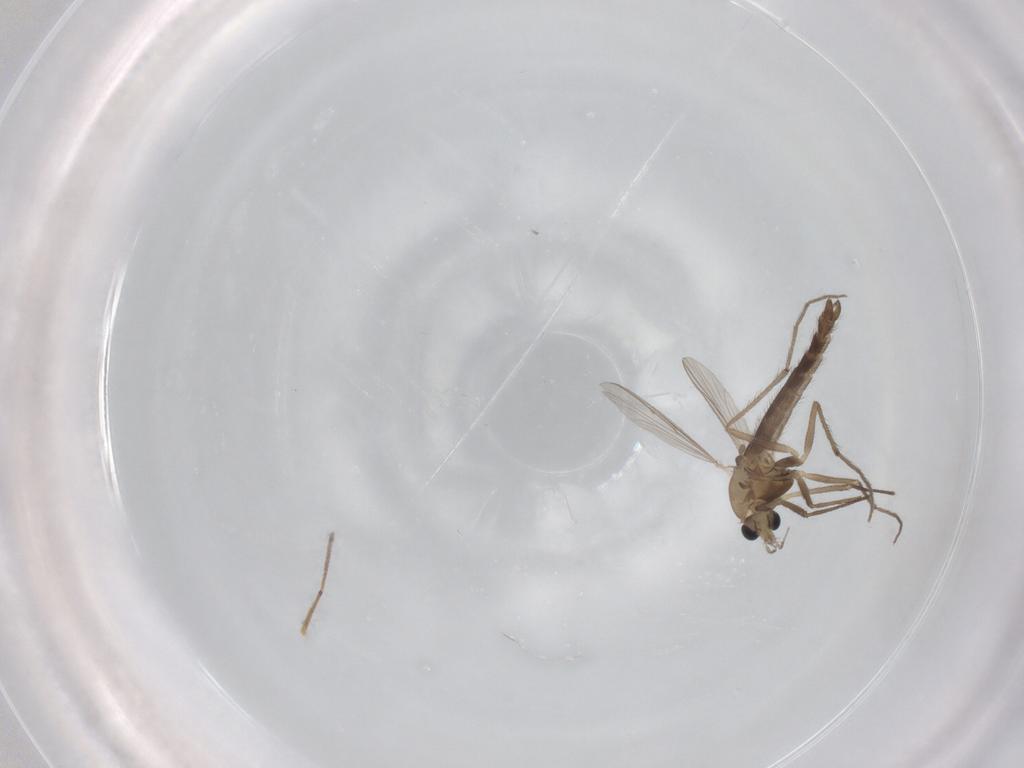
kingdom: Animalia
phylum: Arthropoda
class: Insecta
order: Diptera
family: Chironomidae
